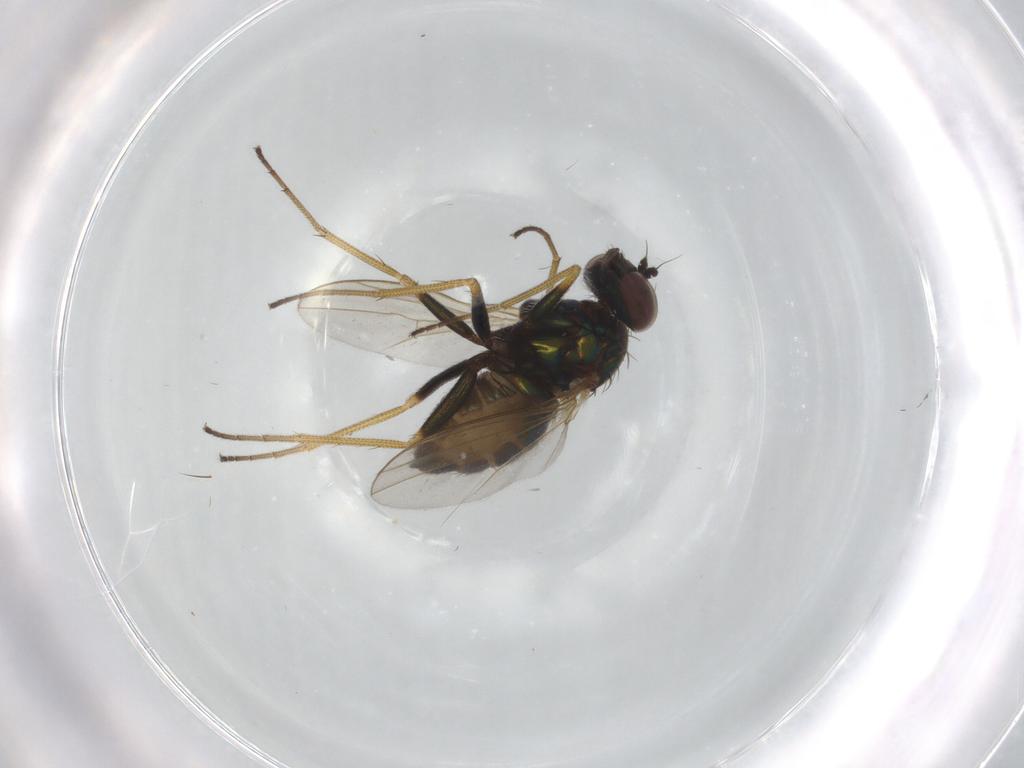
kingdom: Animalia
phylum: Arthropoda
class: Insecta
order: Diptera
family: Dolichopodidae
